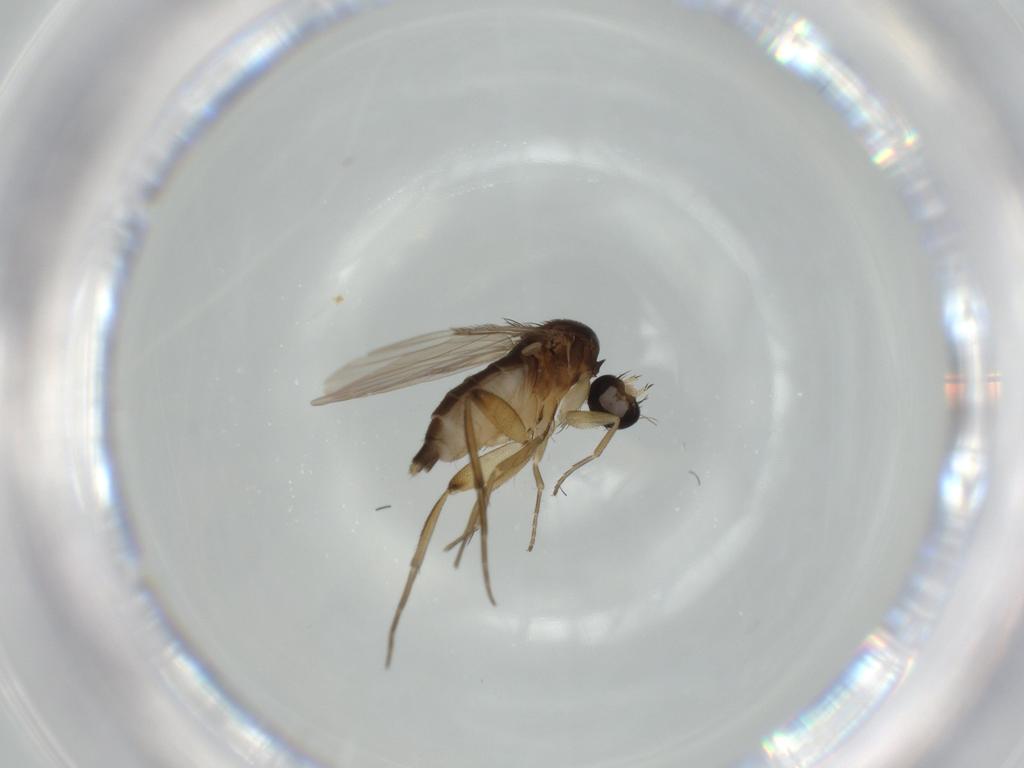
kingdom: Animalia
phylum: Arthropoda
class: Insecta
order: Diptera
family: Phoridae
